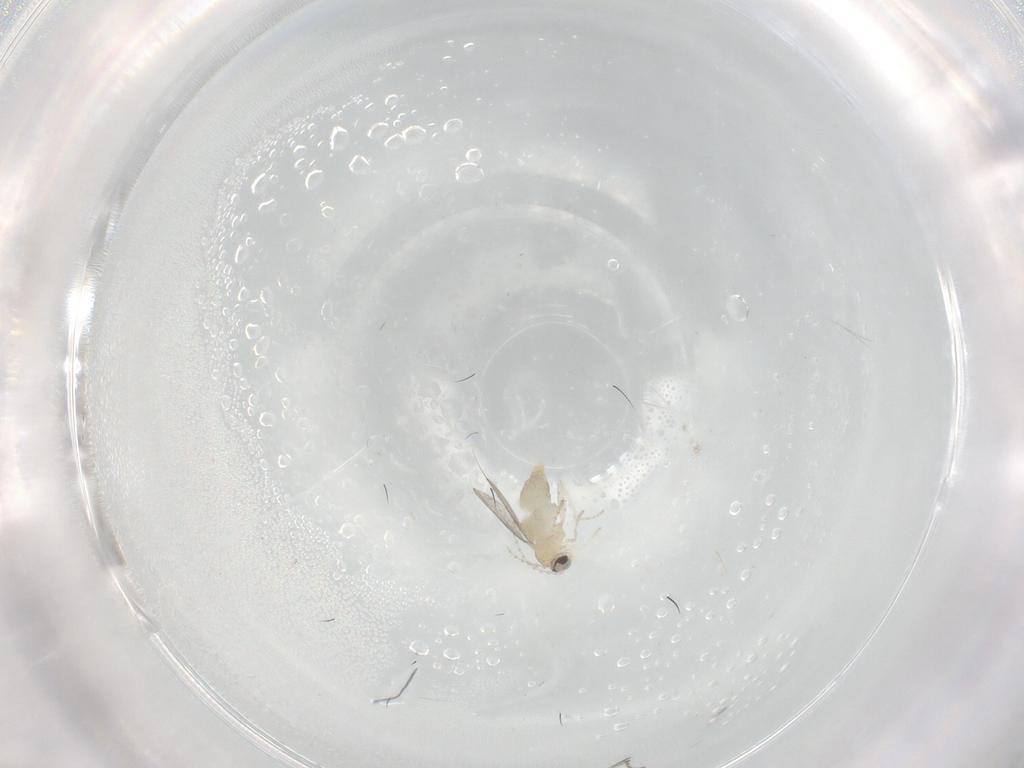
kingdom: Animalia
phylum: Arthropoda
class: Insecta
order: Diptera
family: Cecidomyiidae
